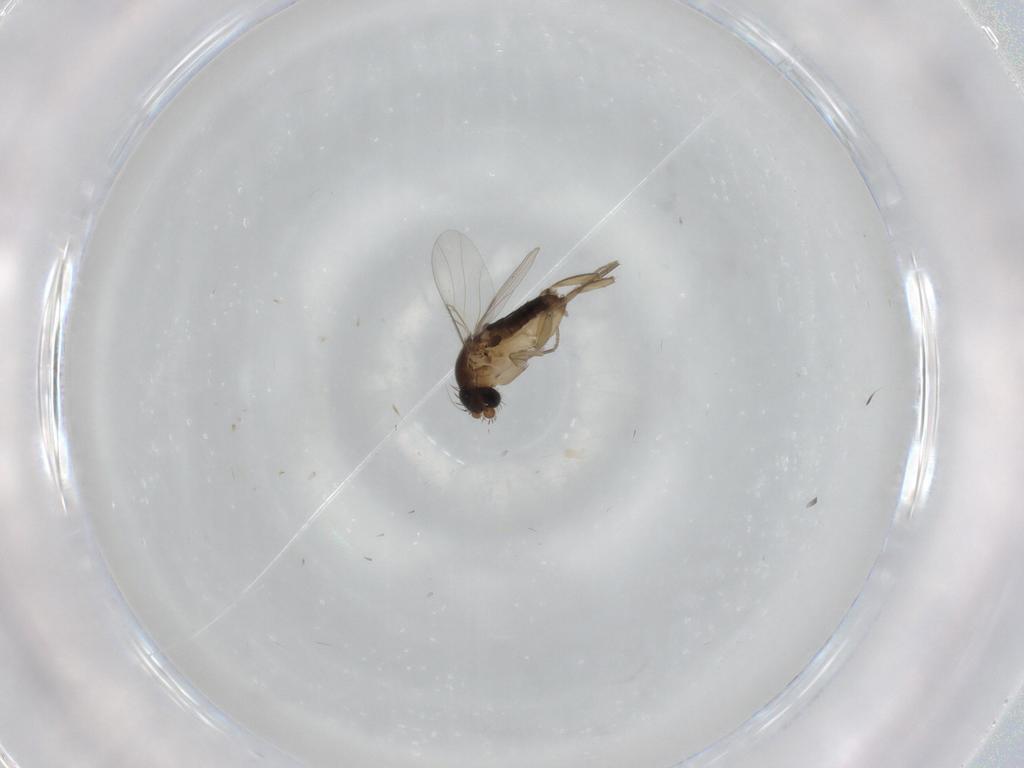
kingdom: Animalia
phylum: Arthropoda
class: Insecta
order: Diptera
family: Phoridae
